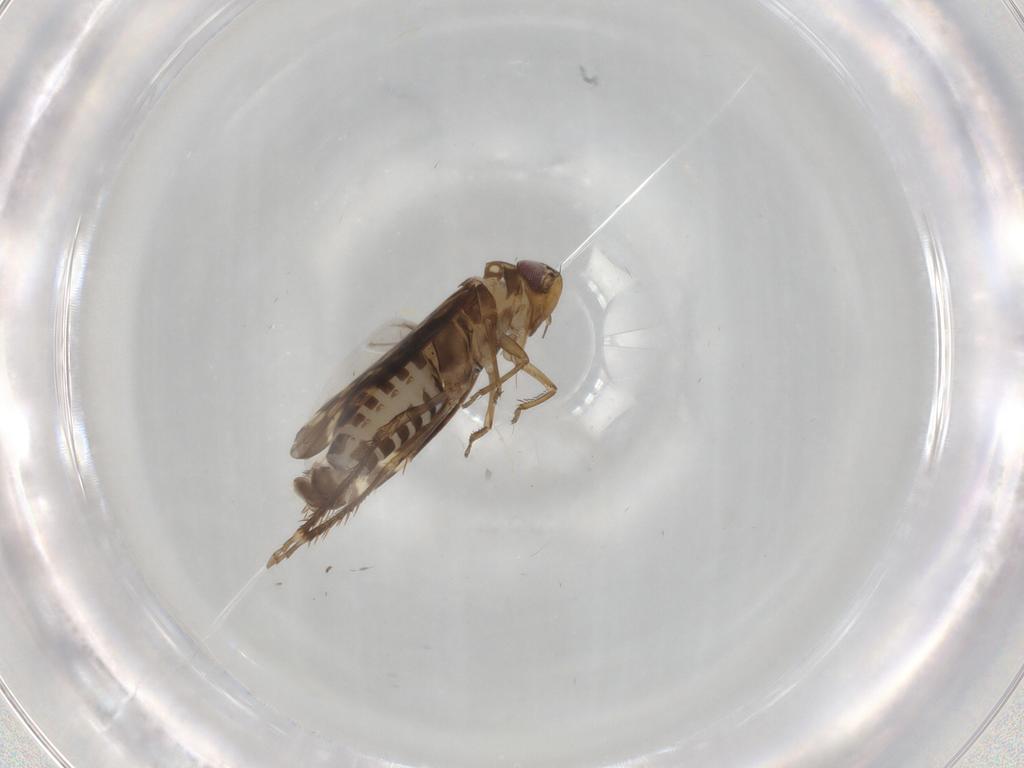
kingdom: Animalia
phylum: Arthropoda
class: Insecta
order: Hemiptera
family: Cicadellidae
